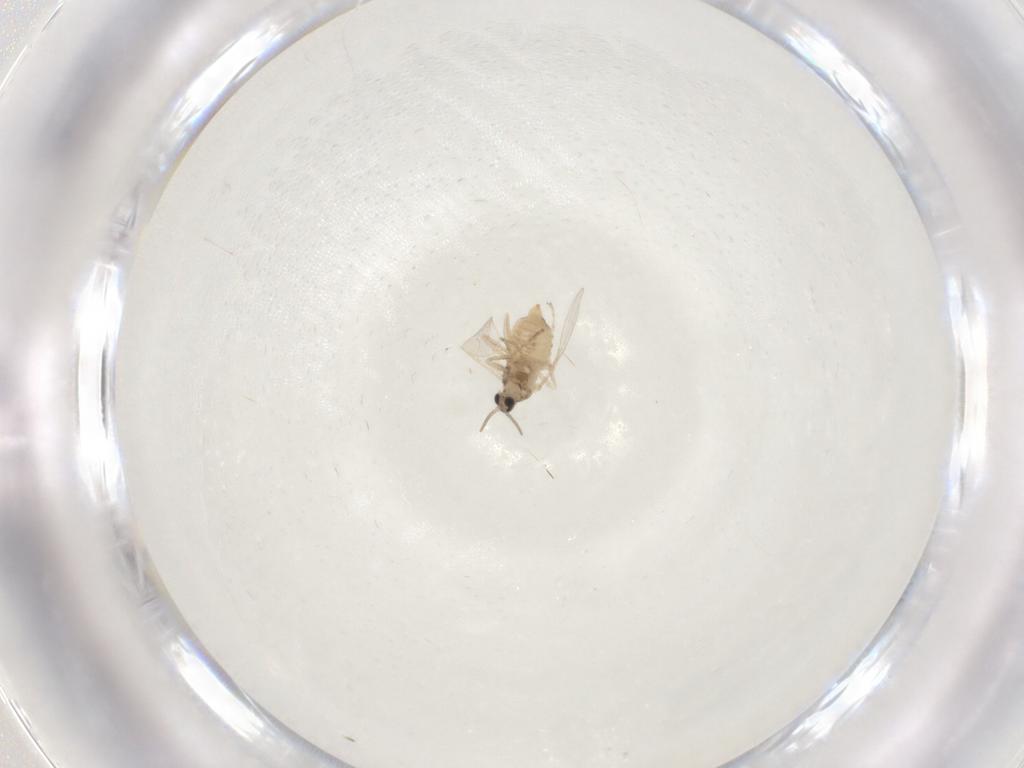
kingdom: Animalia
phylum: Arthropoda
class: Insecta
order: Diptera
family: Cecidomyiidae
